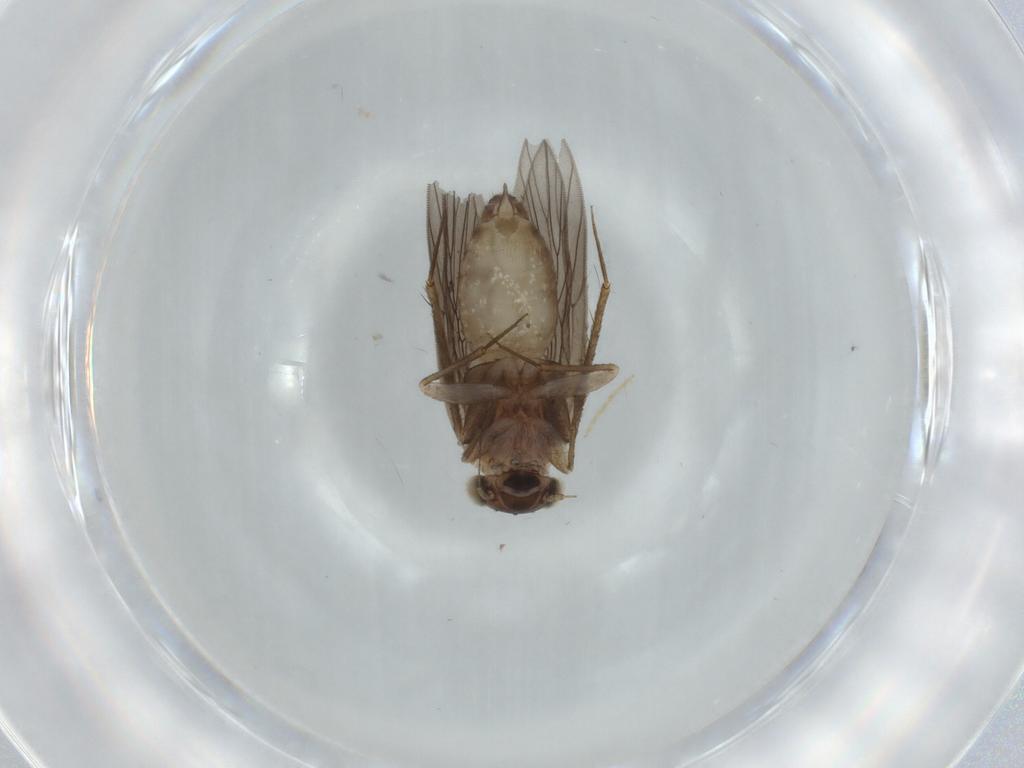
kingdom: Animalia
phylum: Arthropoda
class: Insecta
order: Psocodea
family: Lepidopsocidae
